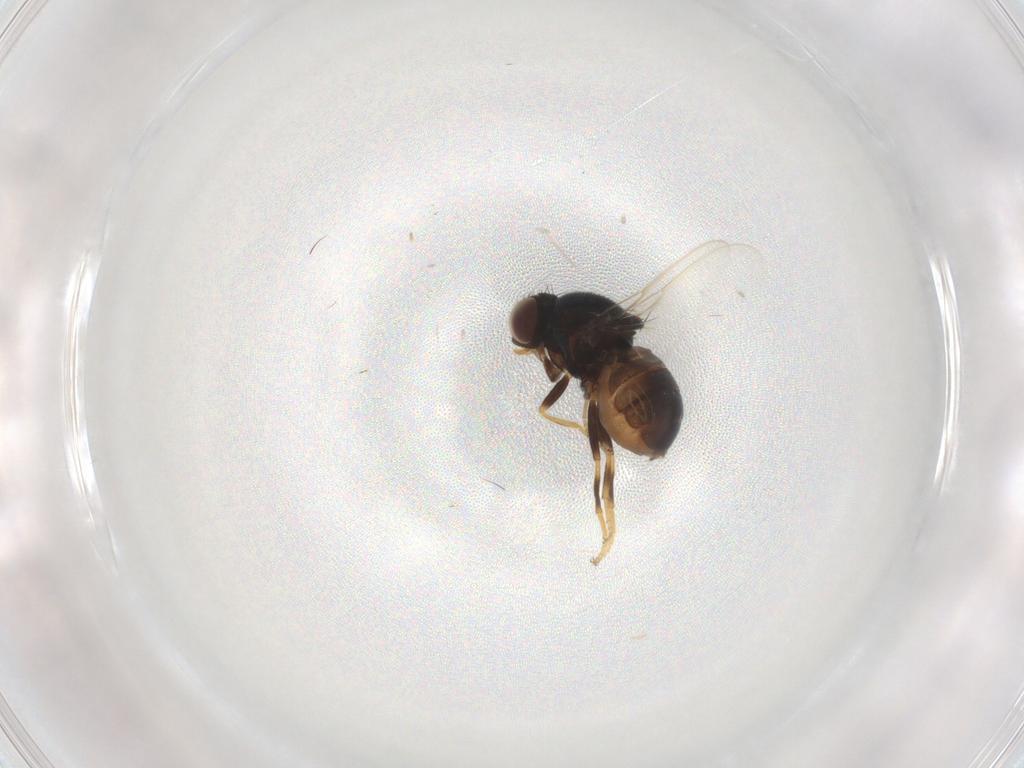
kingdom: Animalia
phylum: Arthropoda
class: Insecta
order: Diptera
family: Chloropidae
